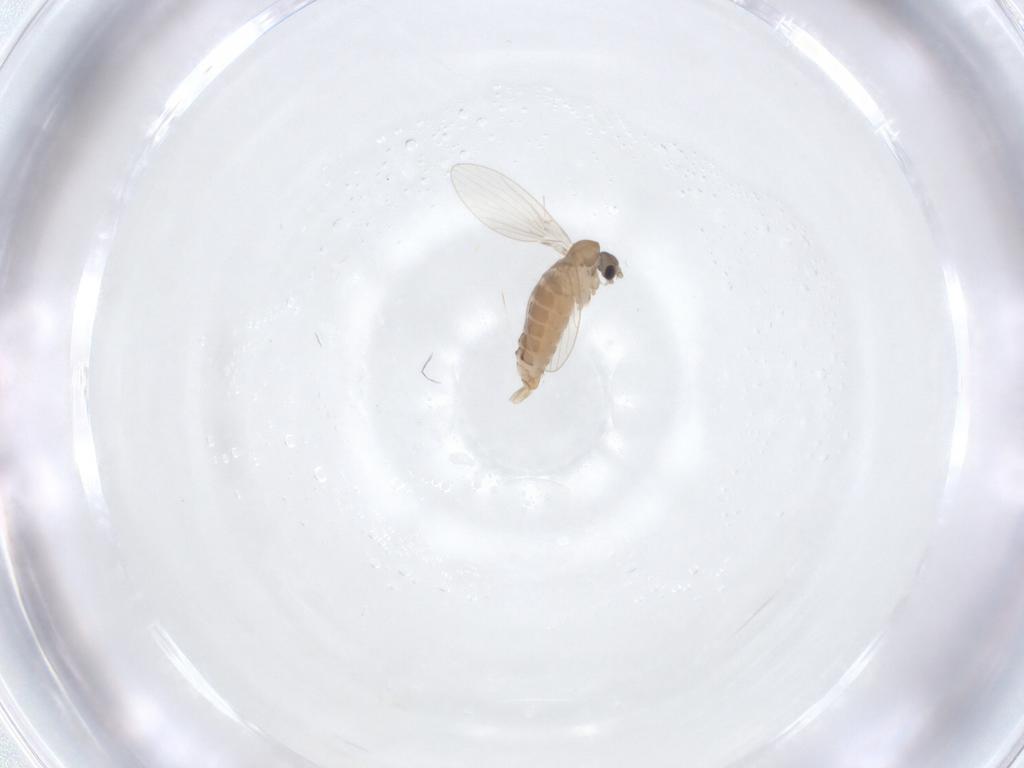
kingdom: Animalia
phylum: Arthropoda
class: Insecta
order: Diptera
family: Psychodidae
